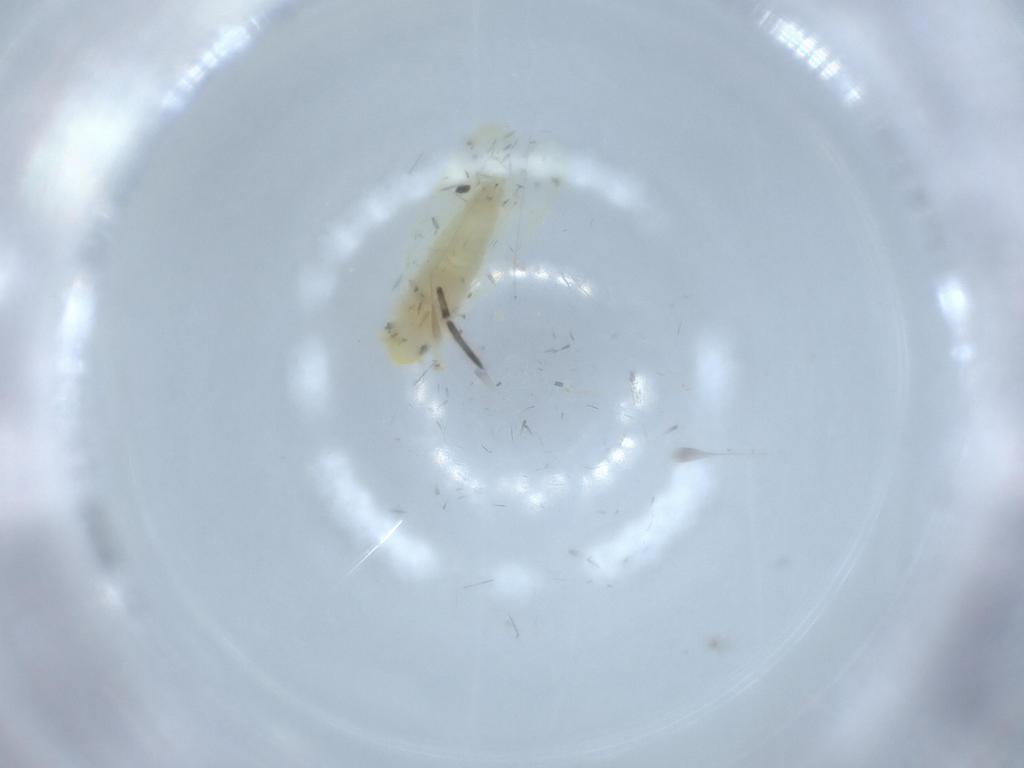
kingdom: Animalia
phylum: Arthropoda
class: Insecta
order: Hemiptera
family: Cicadellidae
